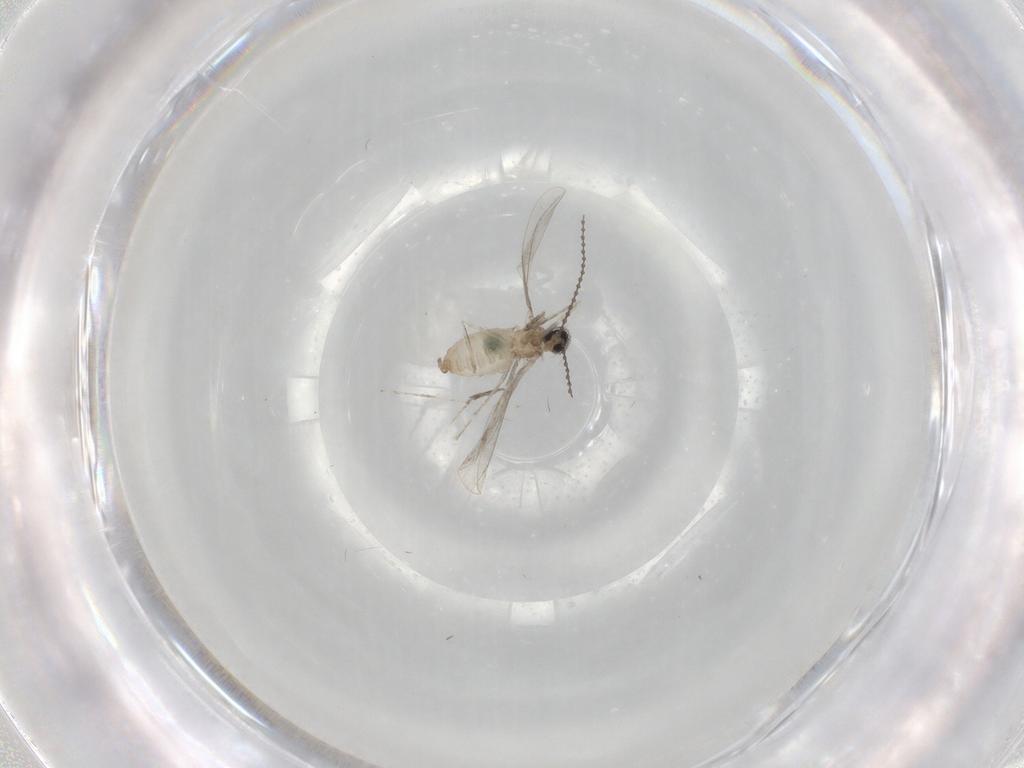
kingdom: Animalia
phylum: Arthropoda
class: Insecta
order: Diptera
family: Cecidomyiidae
